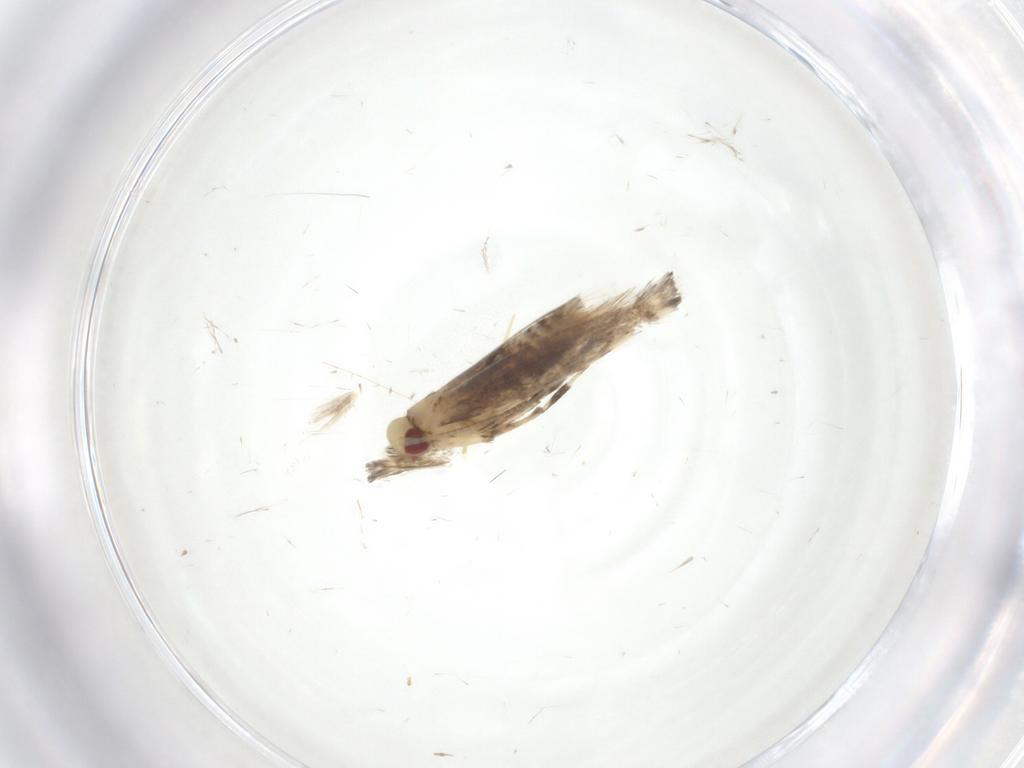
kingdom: Animalia
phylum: Arthropoda
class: Insecta
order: Lepidoptera
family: Gracillariidae
